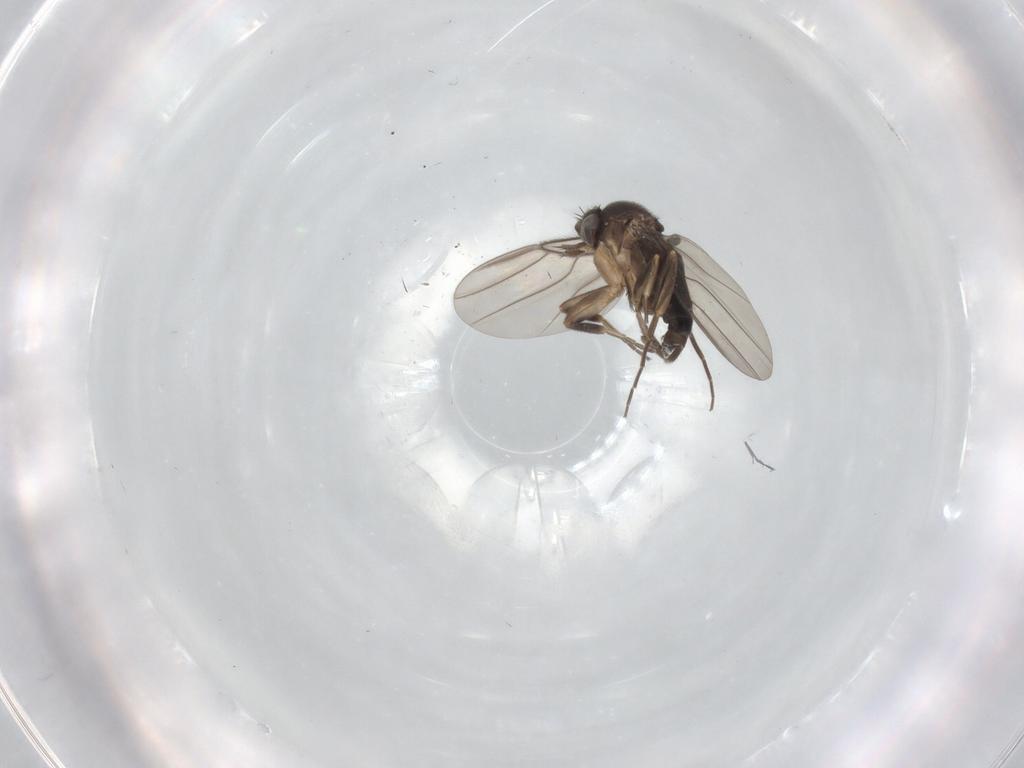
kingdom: Animalia
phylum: Arthropoda
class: Insecta
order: Diptera
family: Phoridae
